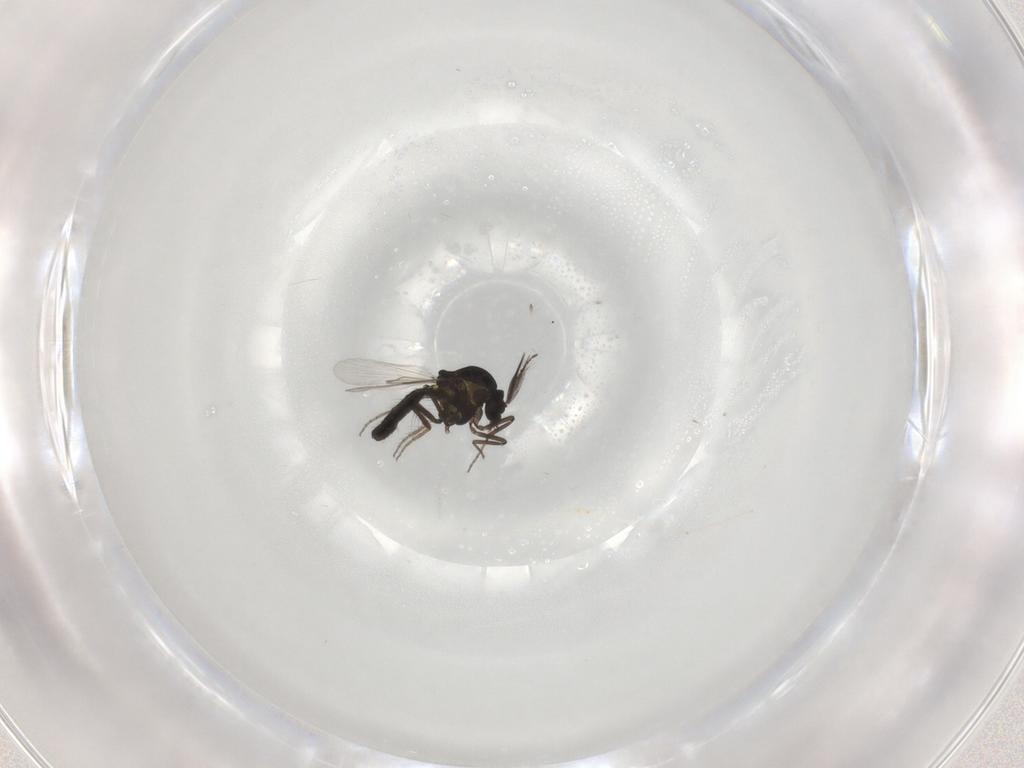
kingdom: Animalia
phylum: Arthropoda
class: Insecta
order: Diptera
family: Ceratopogonidae
